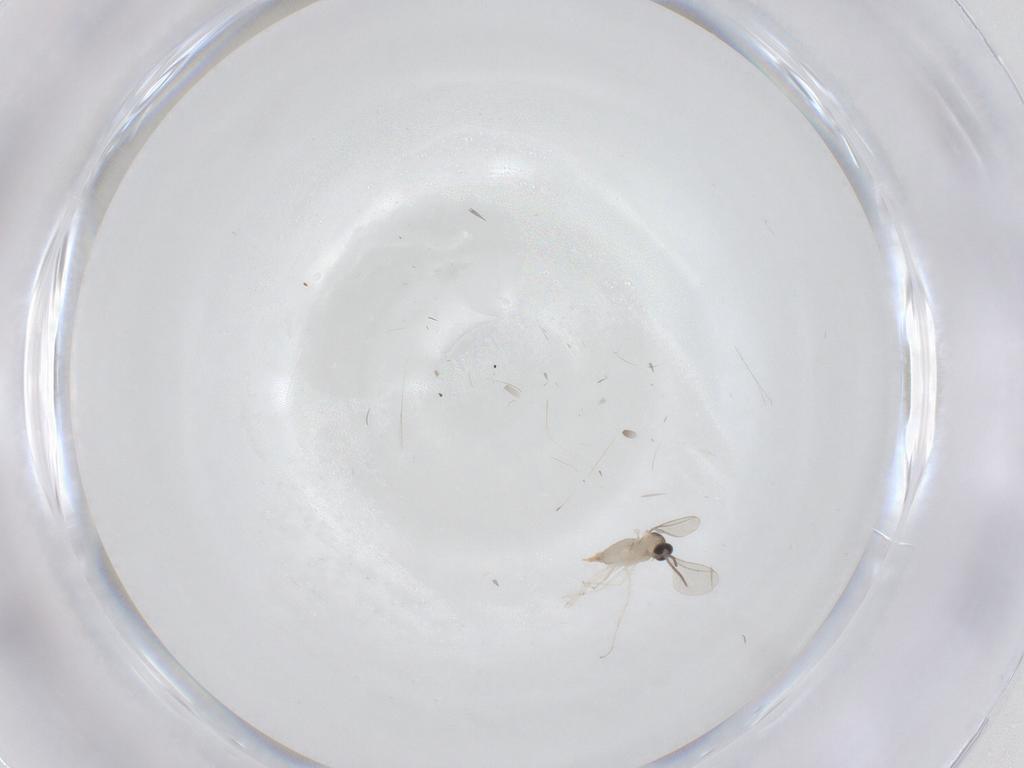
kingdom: Animalia
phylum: Arthropoda
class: Insecta
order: Diptera
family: Cecidomyiidae
